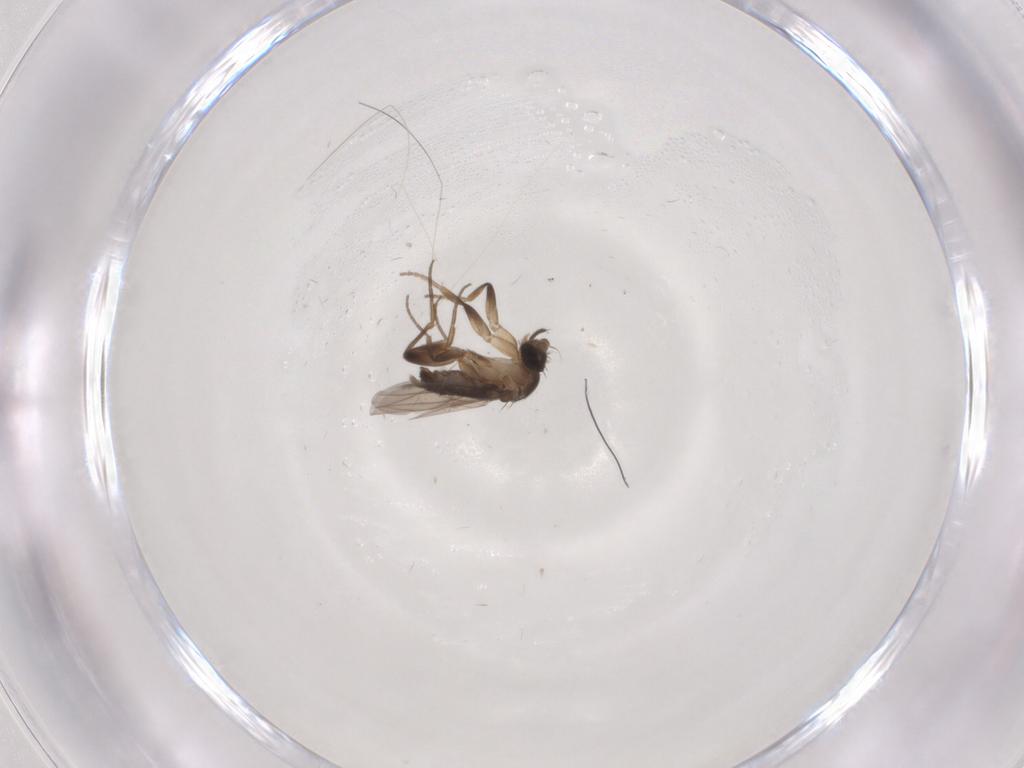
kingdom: Animalia
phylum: Arthropoda
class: Insecta
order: Diptera
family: Phoridae
